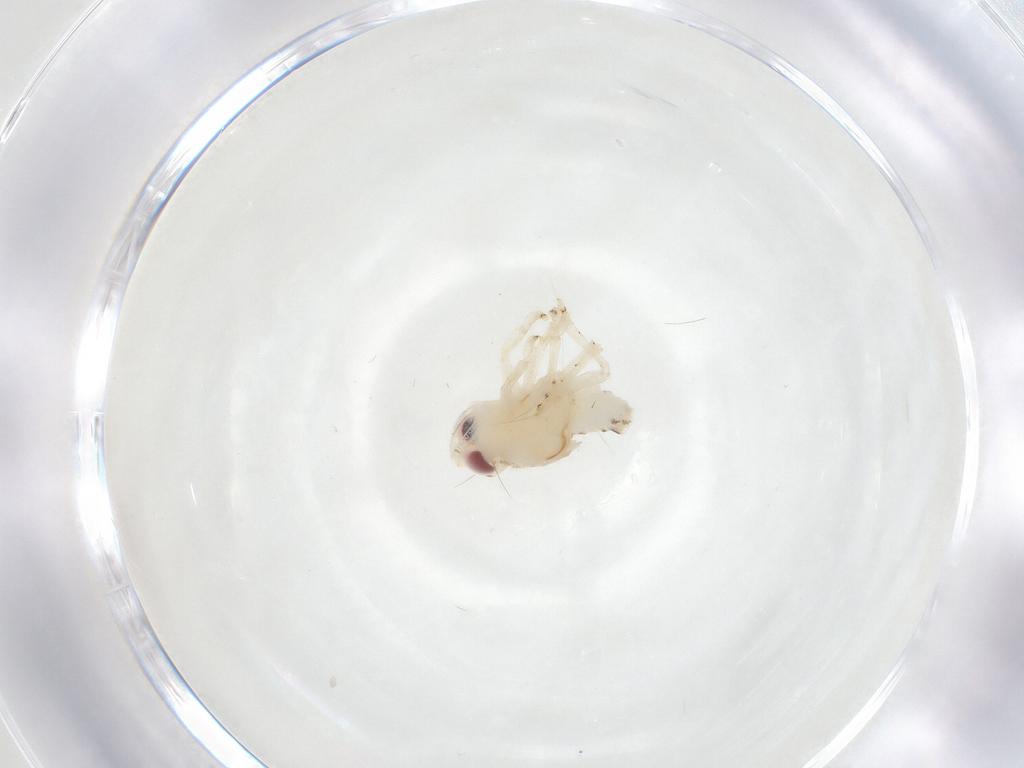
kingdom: Animalia
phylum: Arthropoda
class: Insecta
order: Hemiptera
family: Nogodinidae
